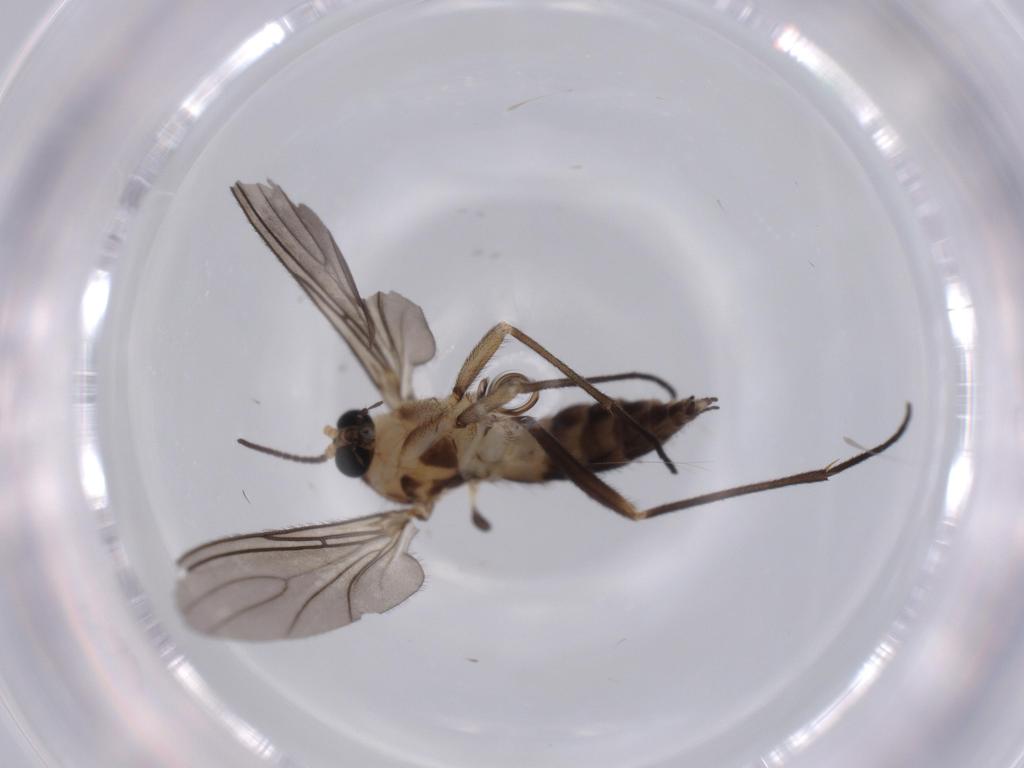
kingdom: Animalia
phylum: Arthropoda
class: Insecta
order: Diptera
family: Sciaridae
